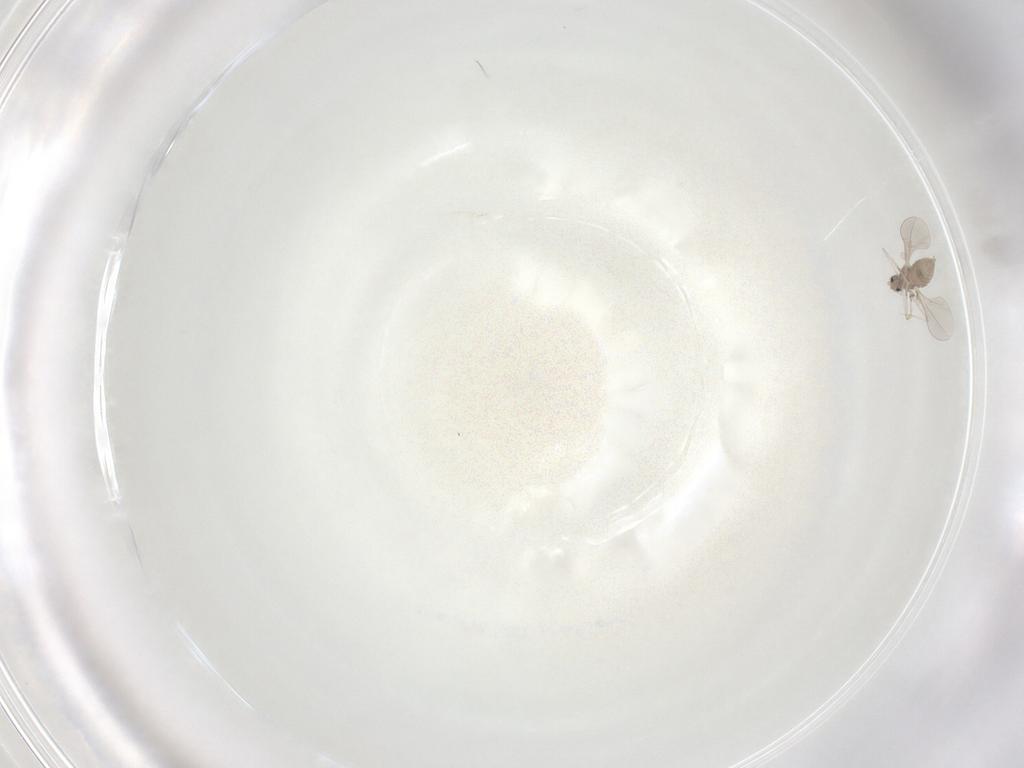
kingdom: Animalia
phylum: Arthropoda
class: Insecta
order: Diptera
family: Cecidomyiidae
